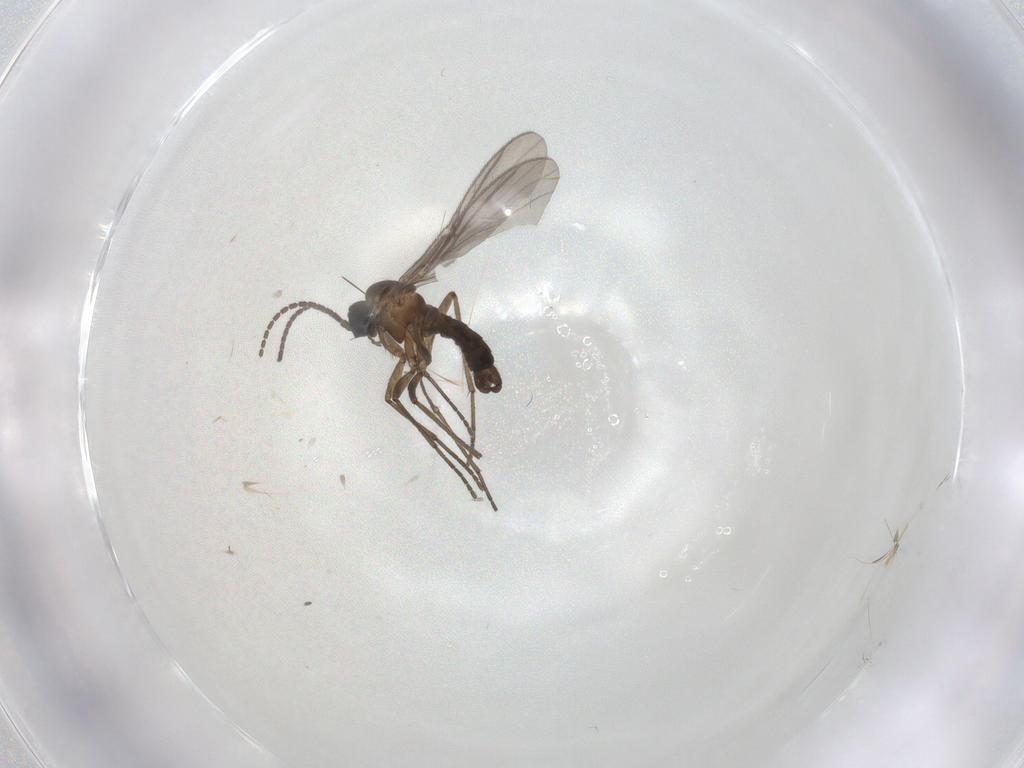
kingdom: Animalia
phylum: Arthropoda
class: Insecta
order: Diptera
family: Sciaridae
